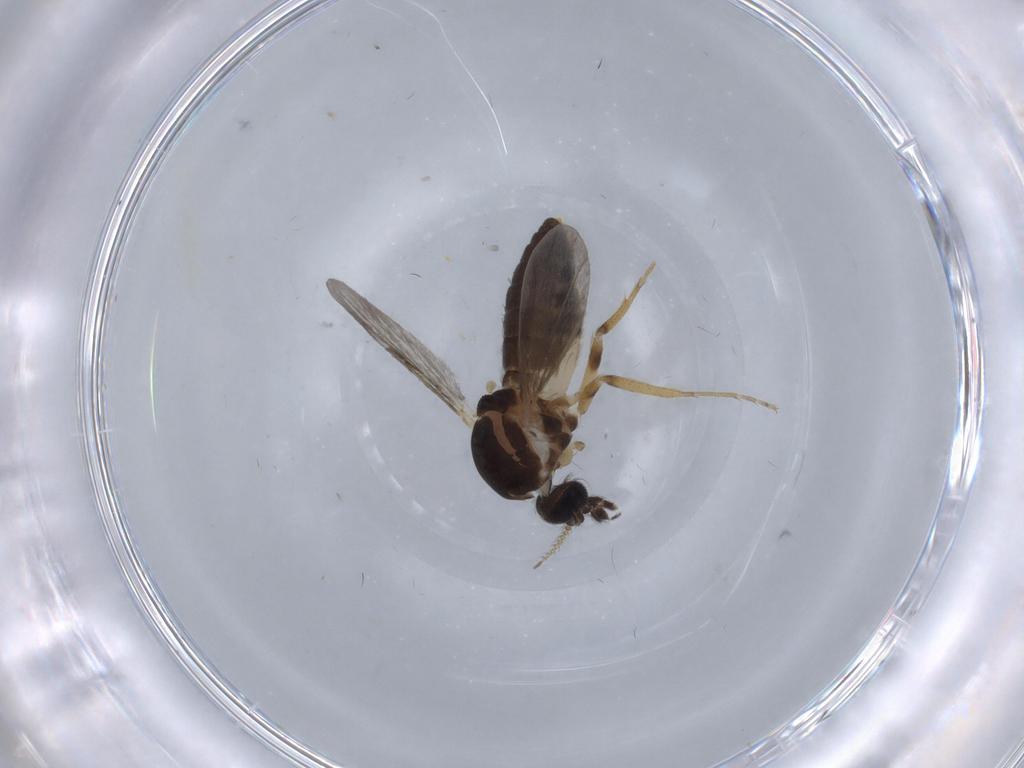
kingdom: Animalia
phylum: Arthropoda
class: Insecta
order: Diptera
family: Ceratopogonidae
